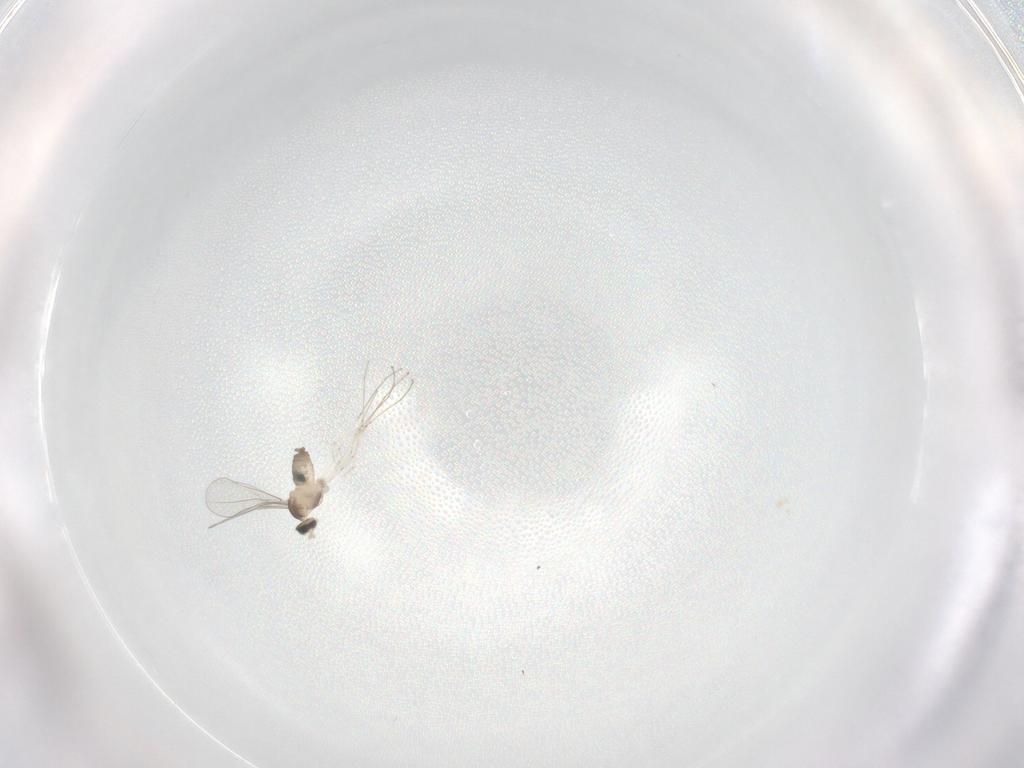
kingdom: Animalia
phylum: Arthropoda
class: Insecta
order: Diptera
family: Cecidomyiidae
